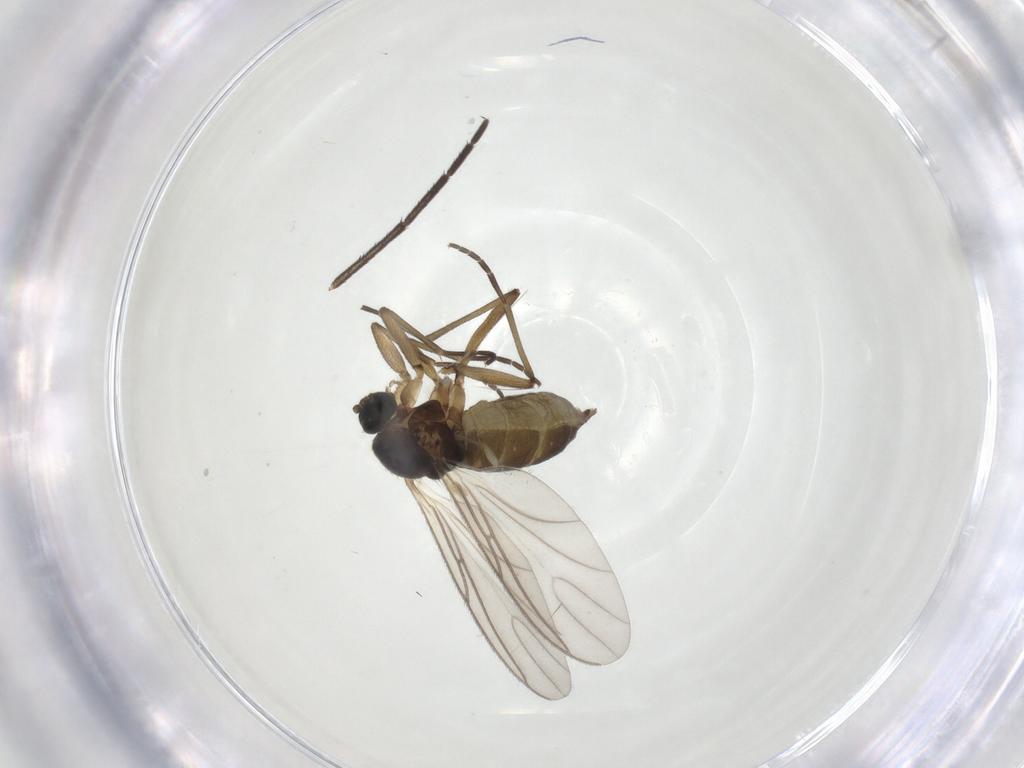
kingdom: Animalia
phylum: Arthropoda
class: Insecta
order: Diptera
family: Mycetophilidae
